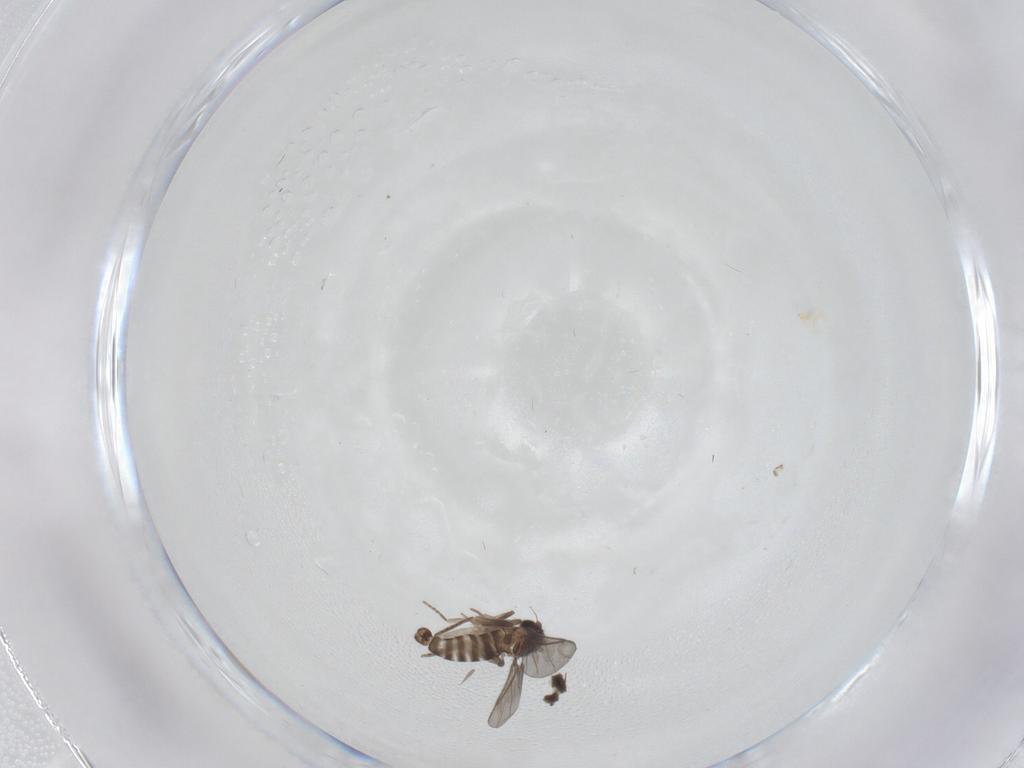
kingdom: Animalia
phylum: Arthropoda
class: Insecta
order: Diptera
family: Ceratopogonidae
